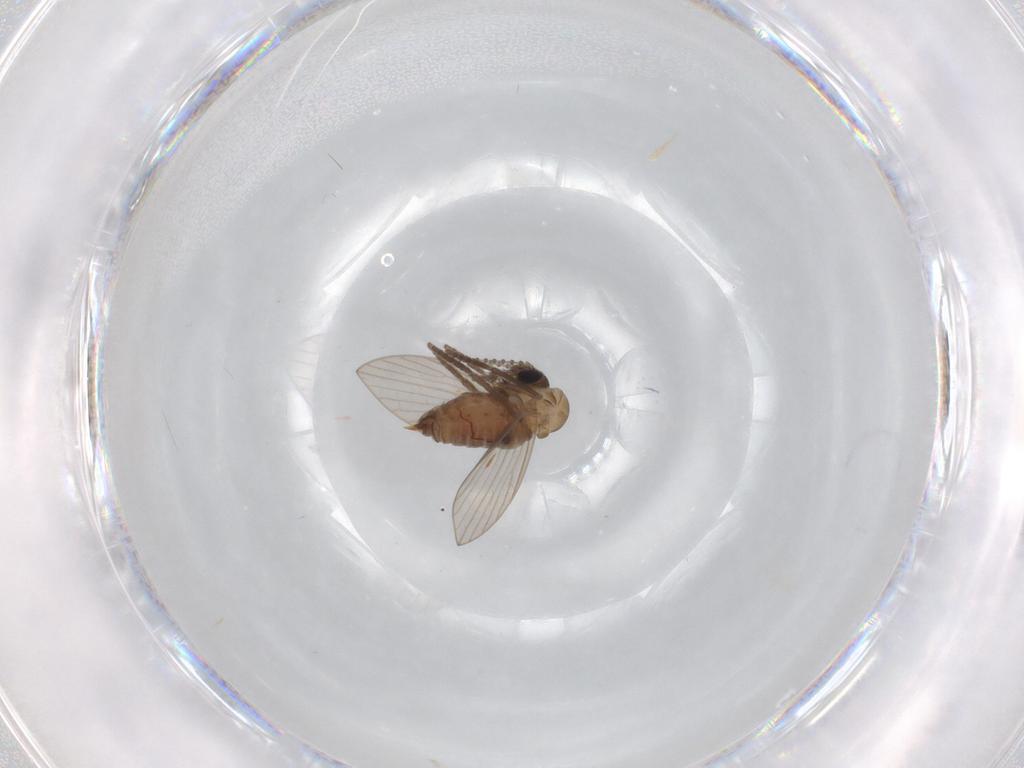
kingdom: Animalia
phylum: Arthropoda
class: Insecta
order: Diptera
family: Psychodidae
